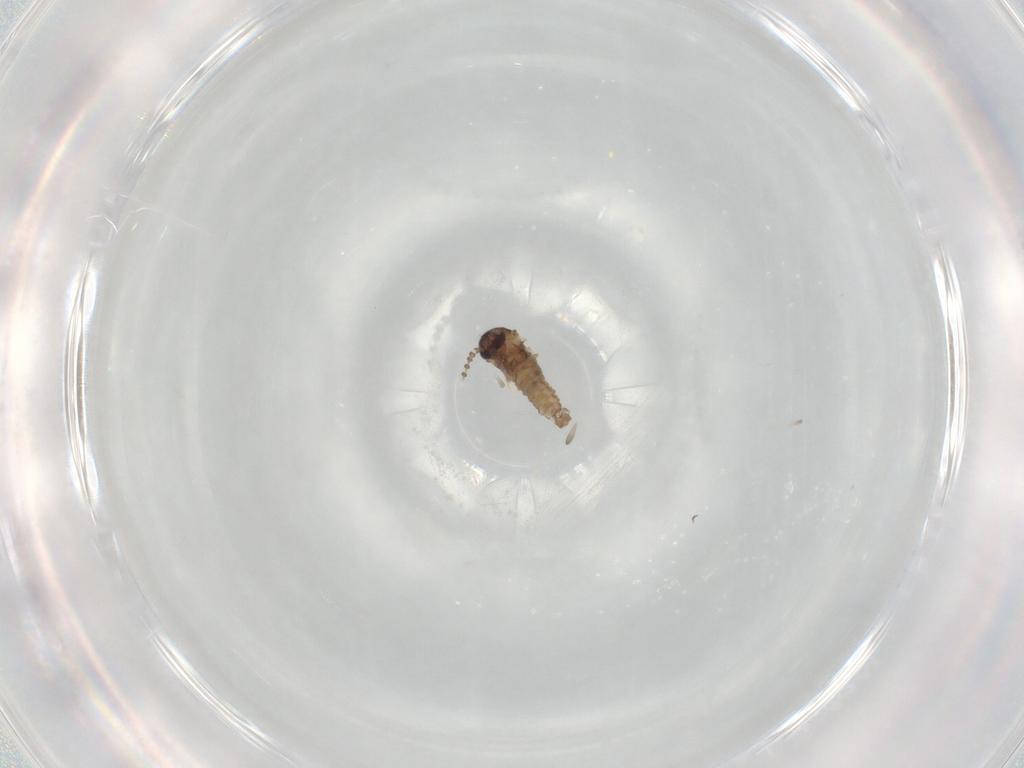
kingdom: Animalia
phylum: Arthropoda
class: Insecta
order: Diptera
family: Syrphidae
